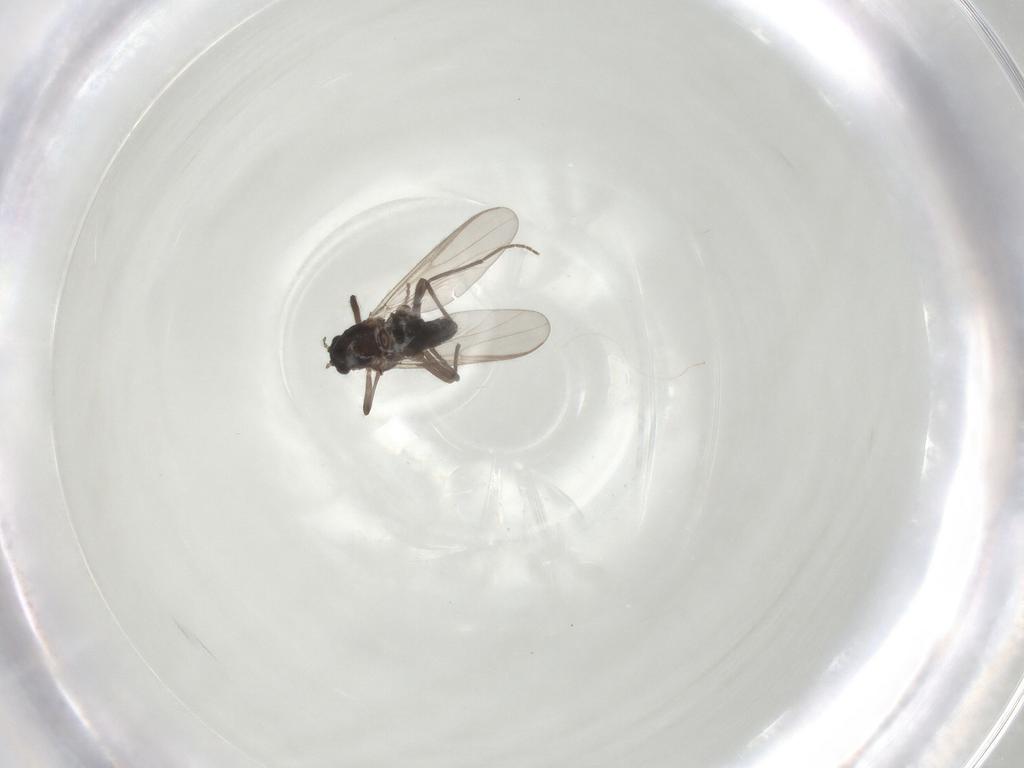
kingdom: Animalia
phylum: Arthropoda
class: Insecta
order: Diptera
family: Chironomidae
